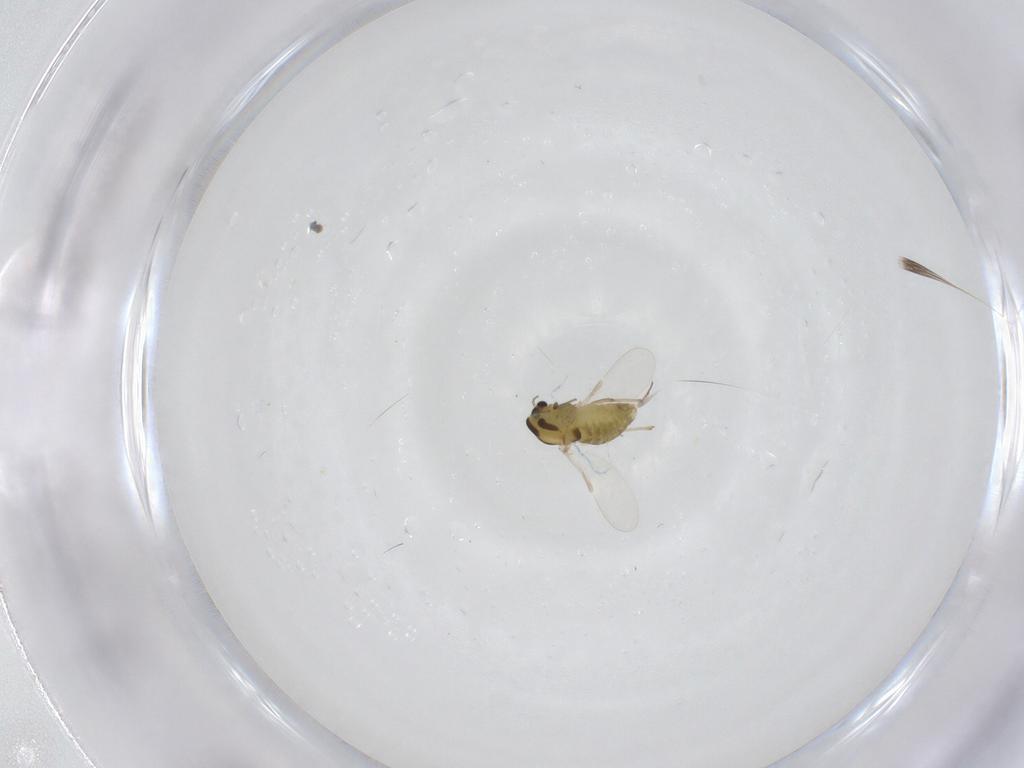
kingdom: Animalia
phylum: Arthropoda
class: Insecta
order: Diptera
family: Chironomidae
